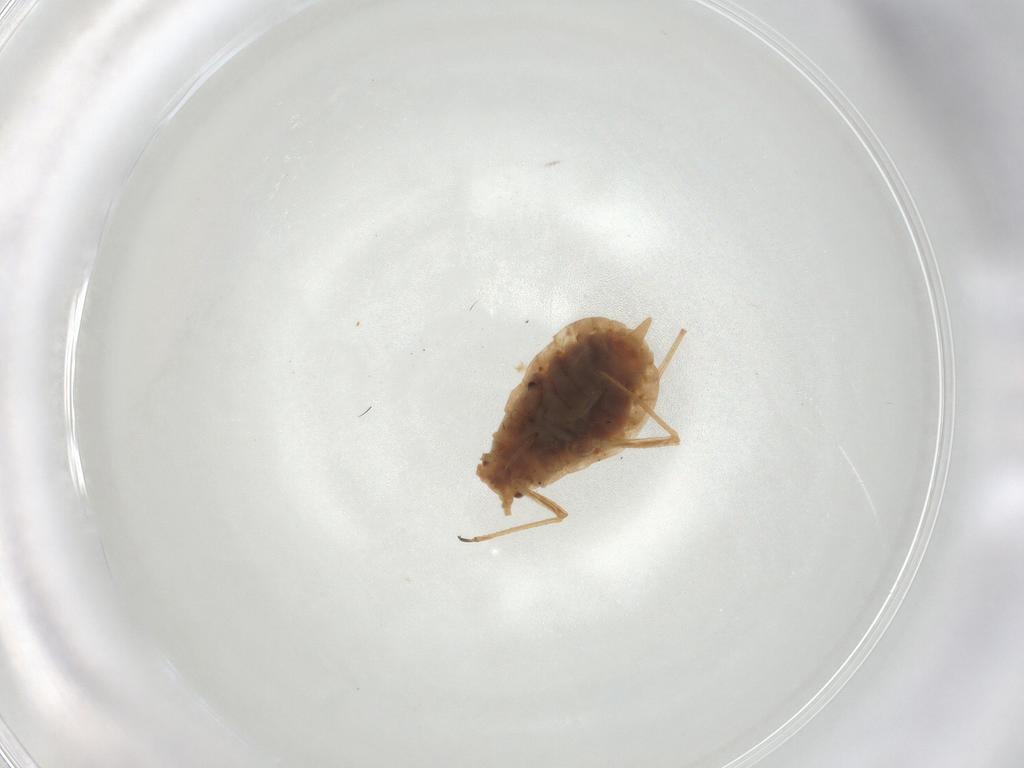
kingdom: Animalia
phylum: Arthropoda
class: Insecta
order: Hemiptera
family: Aphididae
